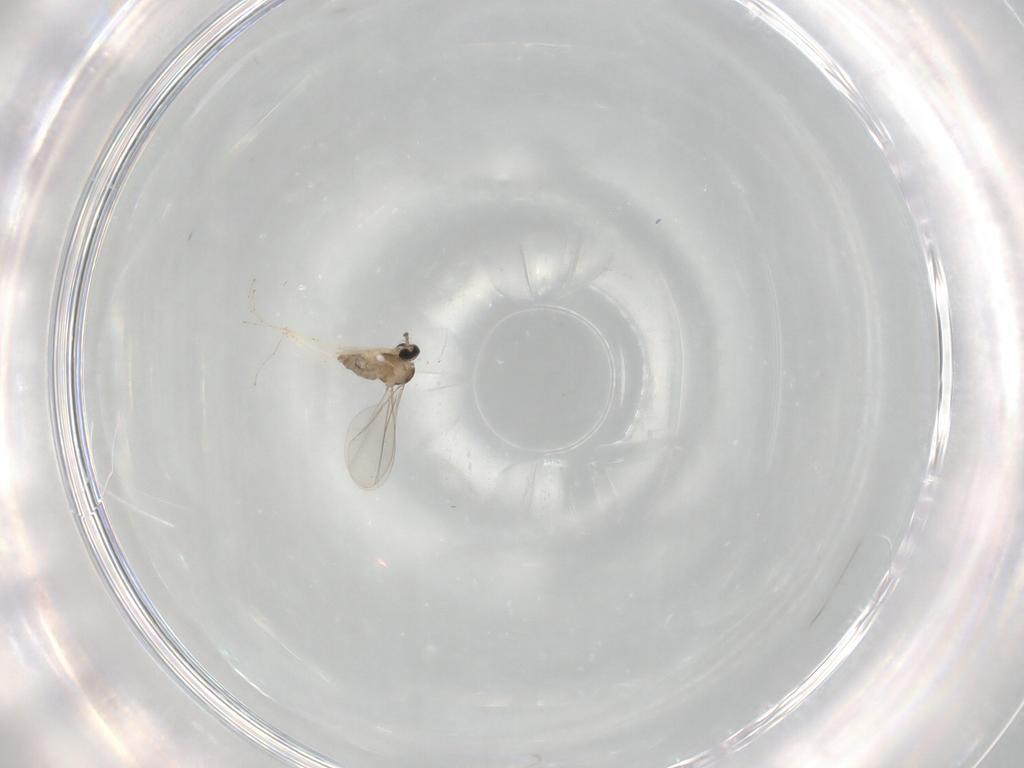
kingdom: Animalia
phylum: Arthropoda
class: Insecta
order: Diptera
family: Cecidomyiidae
